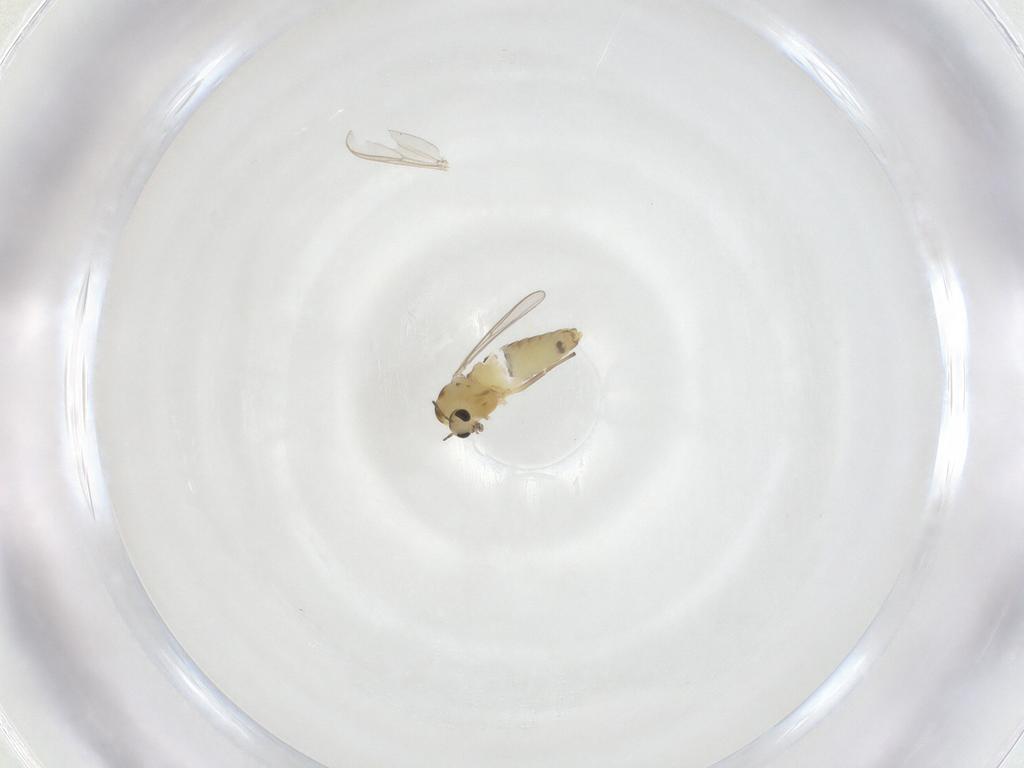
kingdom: Animalia
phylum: Arthropoda
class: Insecta
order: Diptera
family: Chironomidae
